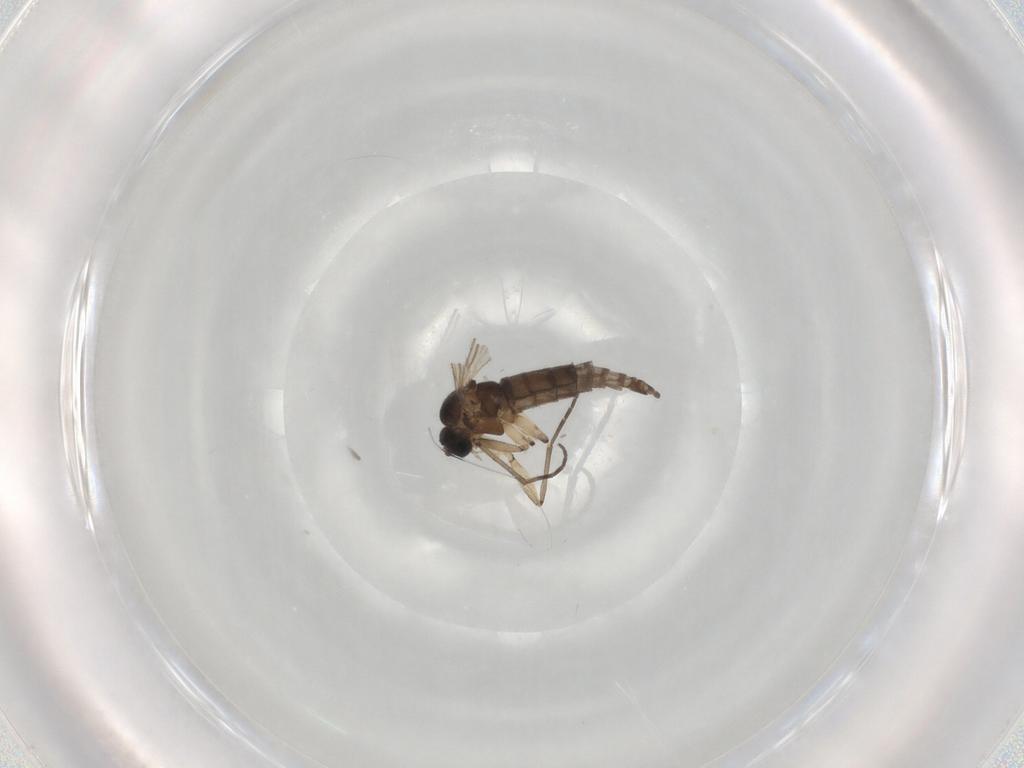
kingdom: Animalia
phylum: Arthropoda
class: Insecta
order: Diptera
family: Sciaridae
